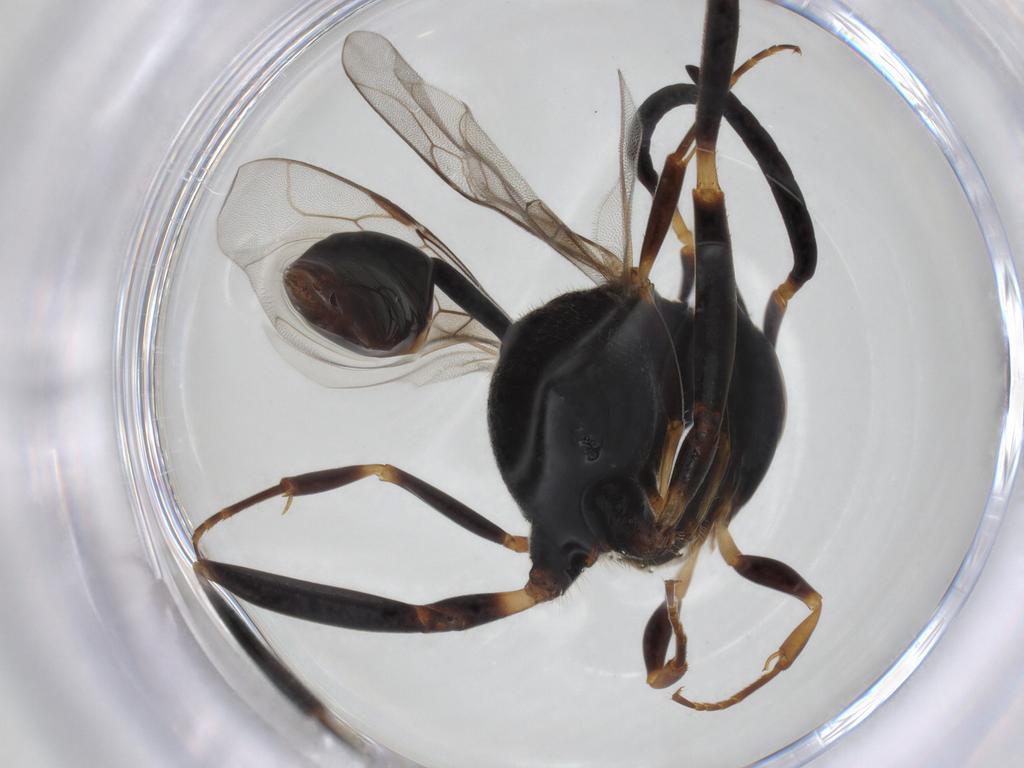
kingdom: Animalia
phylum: Arthropoda
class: Insecta
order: Hymenoptera
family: Evaniidae
